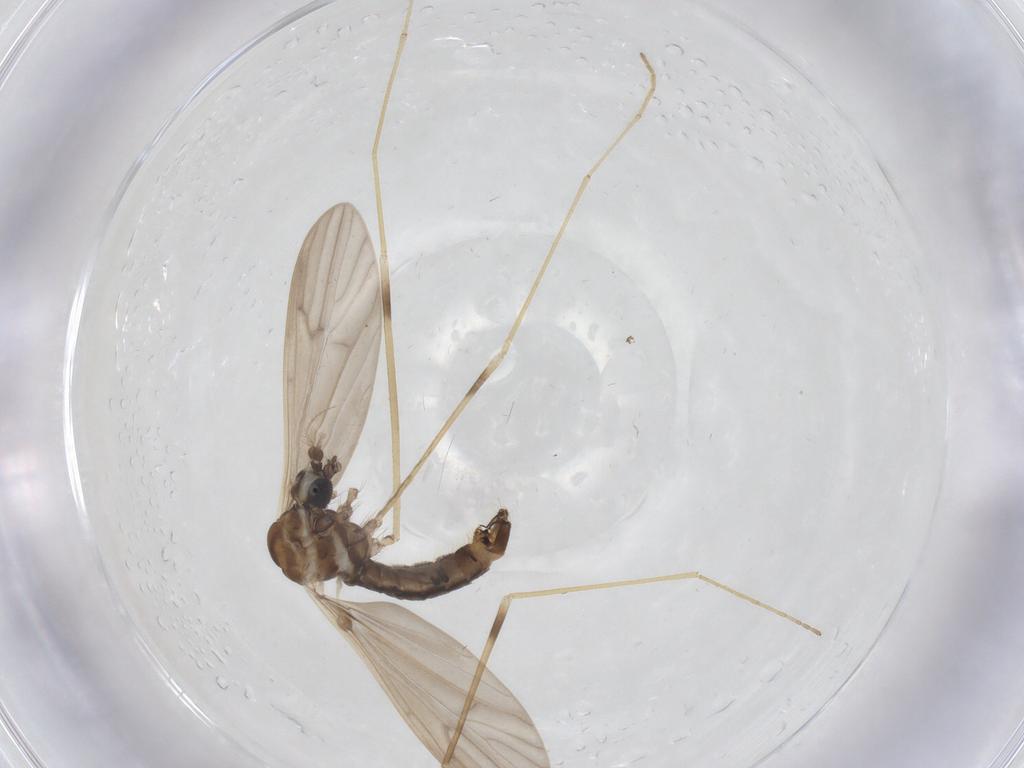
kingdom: Animalia
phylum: Arthropoda
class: Insecta
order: Diptera
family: Limoniidae
